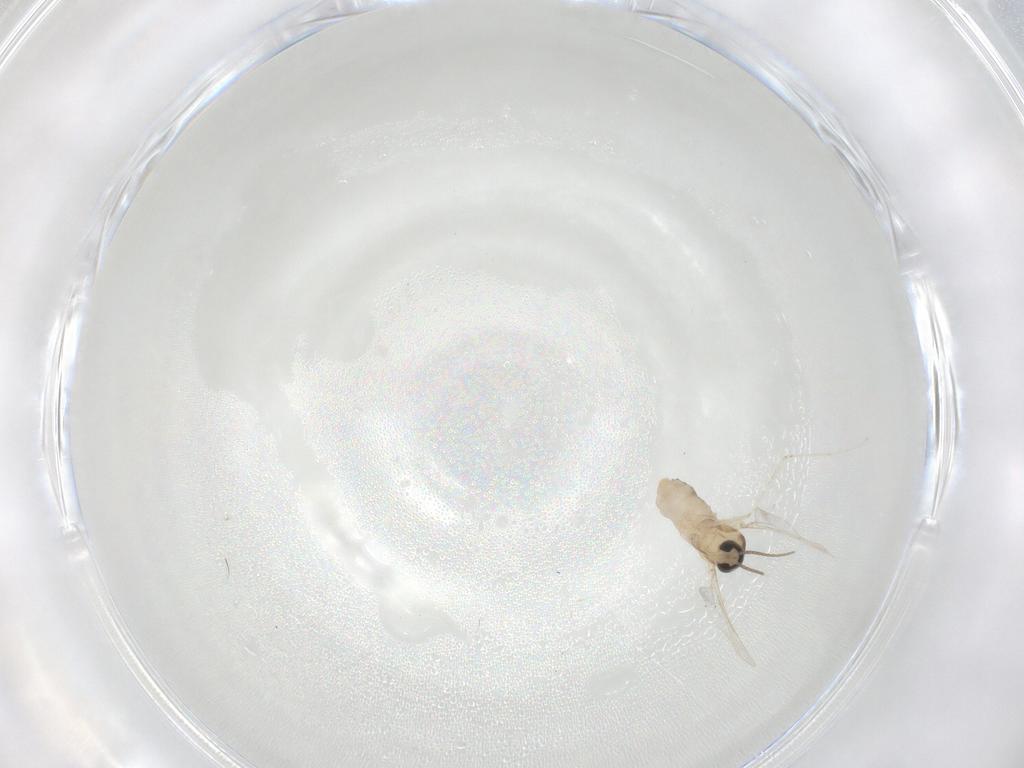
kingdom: Animalia
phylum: Arthropoda
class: Insecta
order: Diptera
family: Cecidomyiidae
